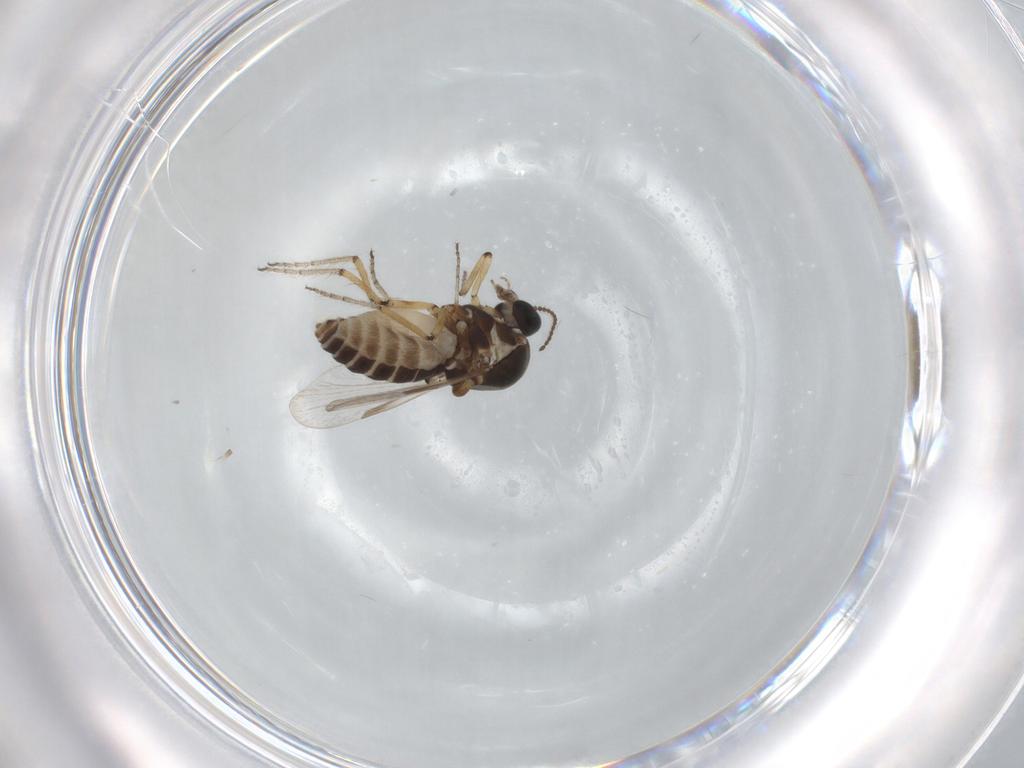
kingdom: Animalia
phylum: Arthropoda
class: Insecta
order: Diptera
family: Ceratopogonidae
